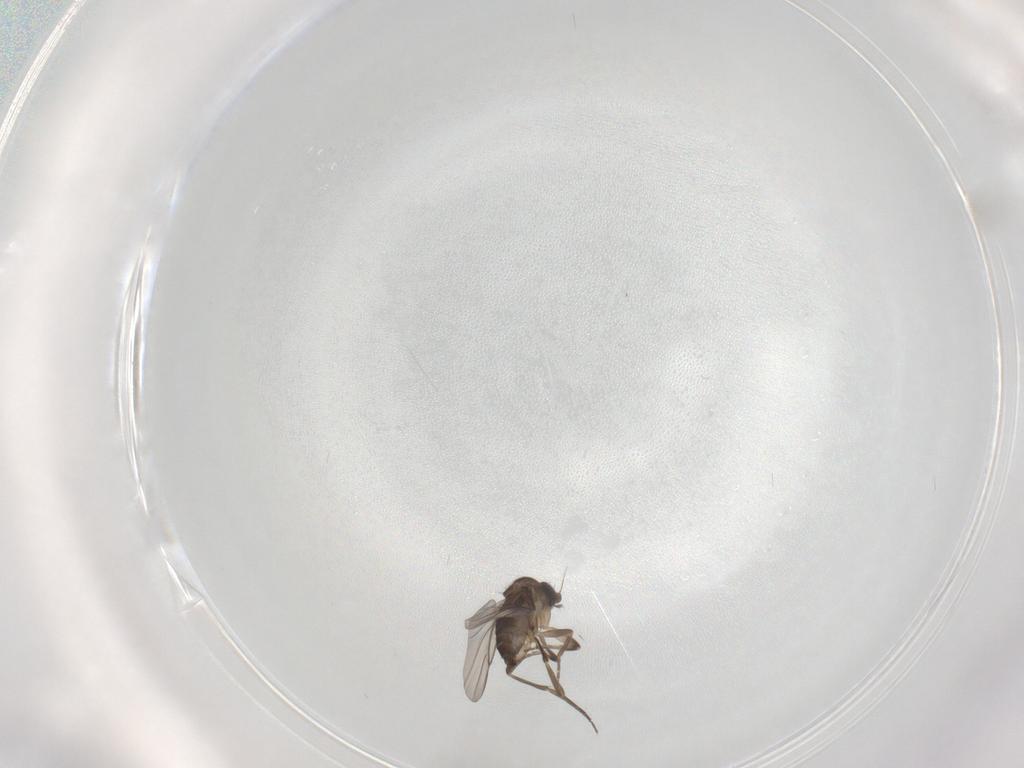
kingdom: Animalia
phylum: Arthropoda
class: Insecta
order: Diptera
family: Phoridae
